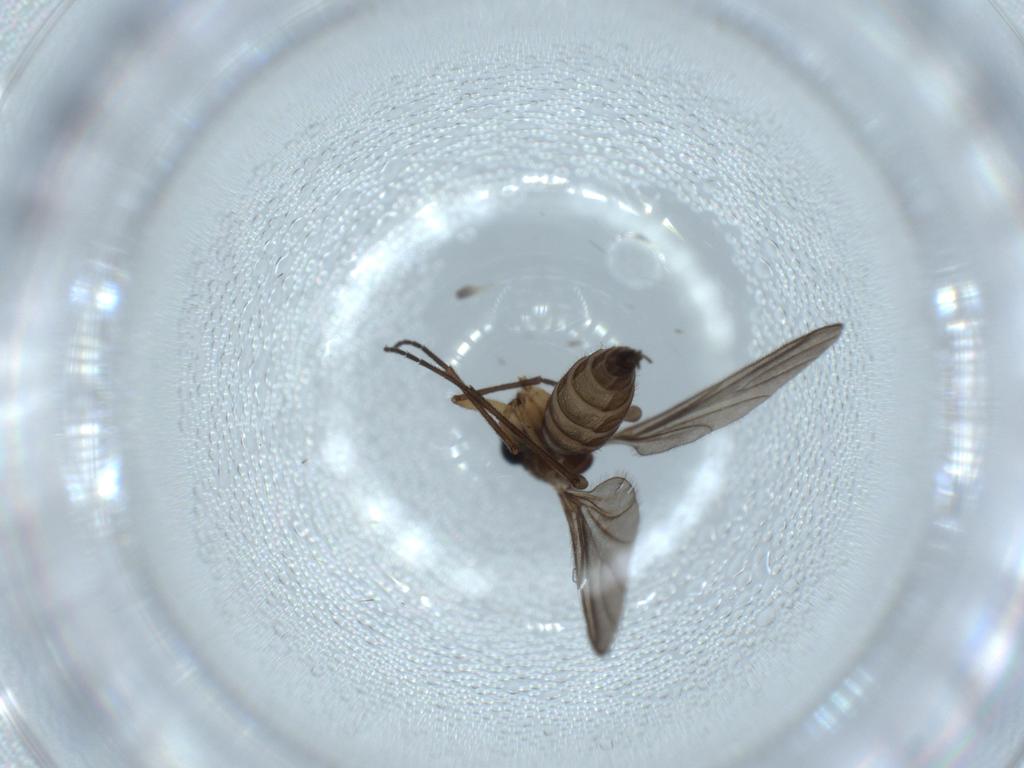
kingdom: Animalia
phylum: Arthropoda
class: Insecta
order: Diptera
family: Sciaridae
